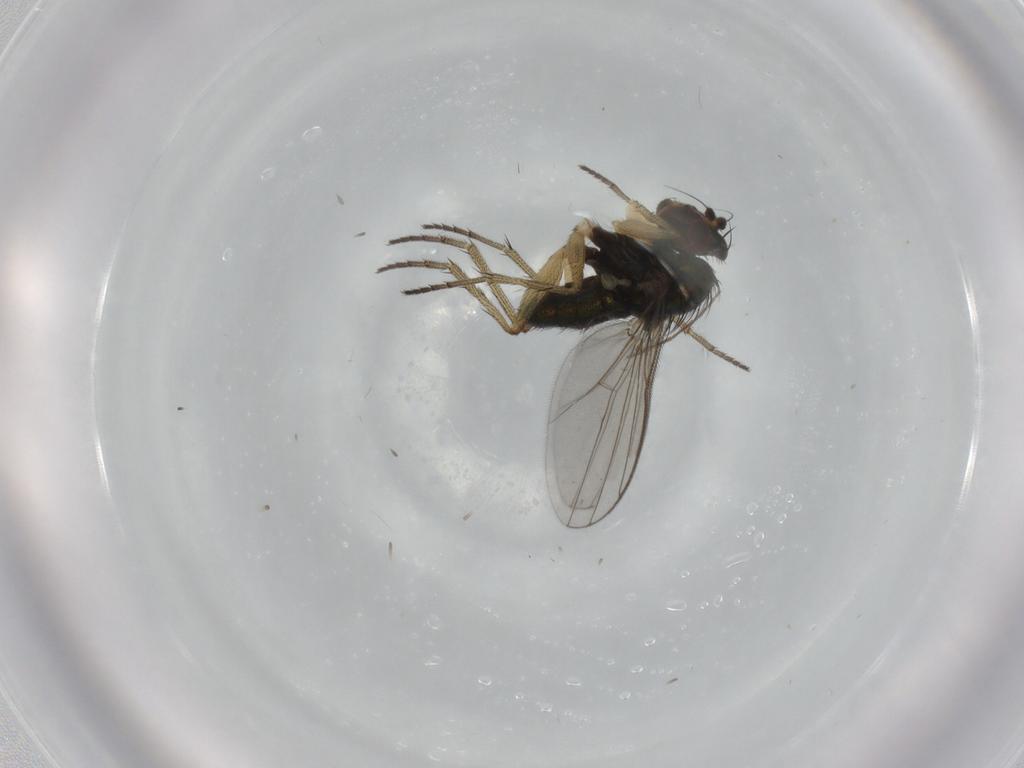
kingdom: Animalia
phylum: Arthropoda
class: Insecta
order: Diptera
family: Dolichopodidae
